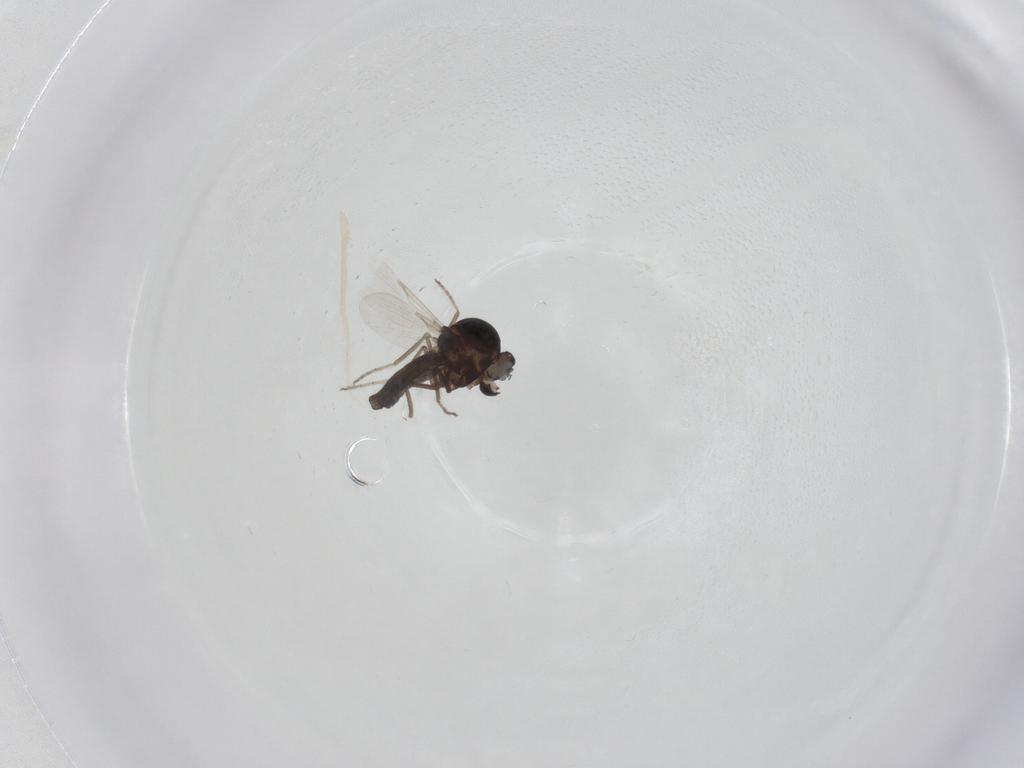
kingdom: Animalia
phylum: Arthropoda
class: Insecta
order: Diptera
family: Ceratopogonidae
